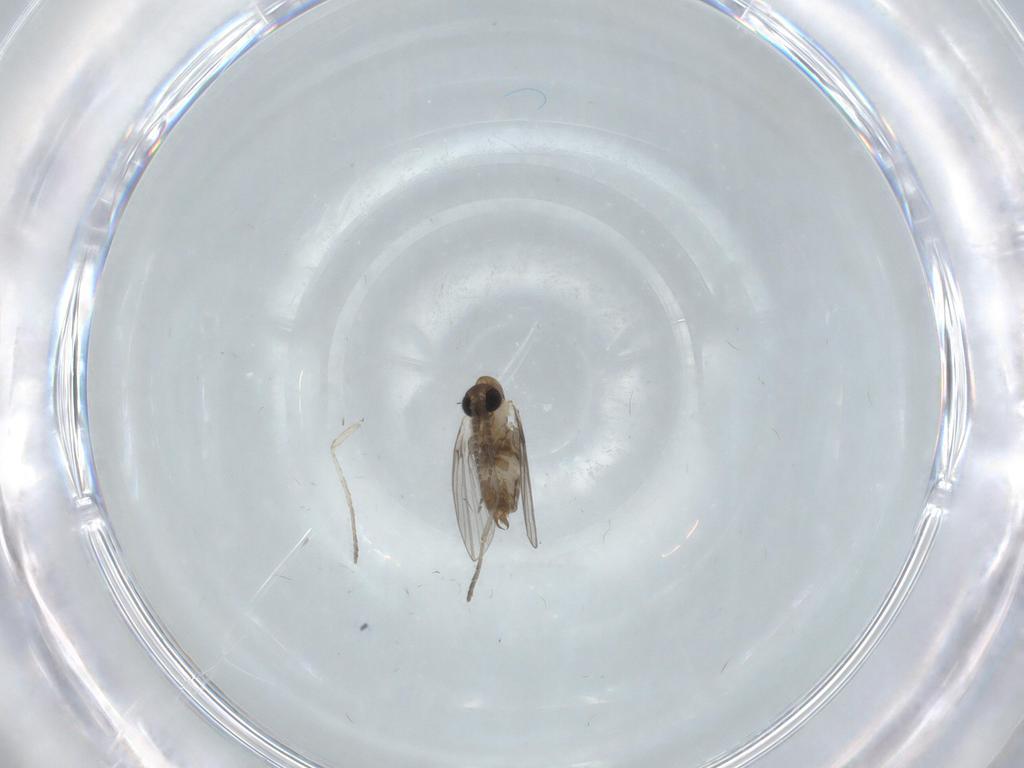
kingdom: Animalia
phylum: Arthropoda
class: Insecta
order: Diptera
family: Psychodidae
